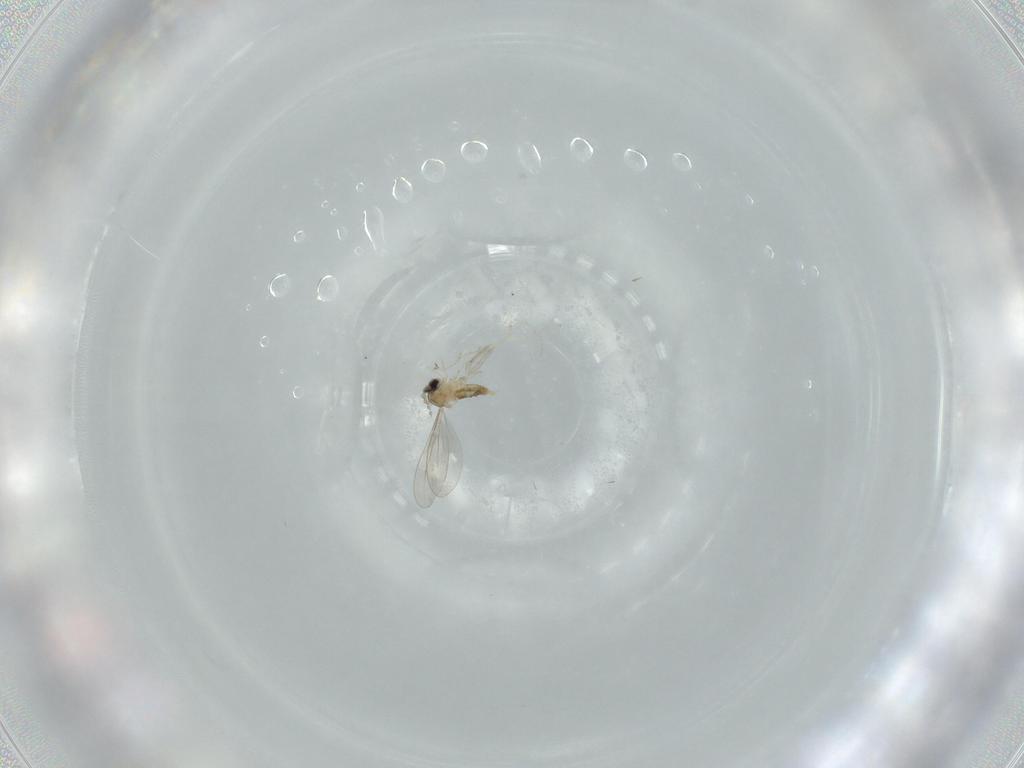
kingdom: Animalia
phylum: Arthropoda
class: Insecta
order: Diptera
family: Cecidomyiidae
